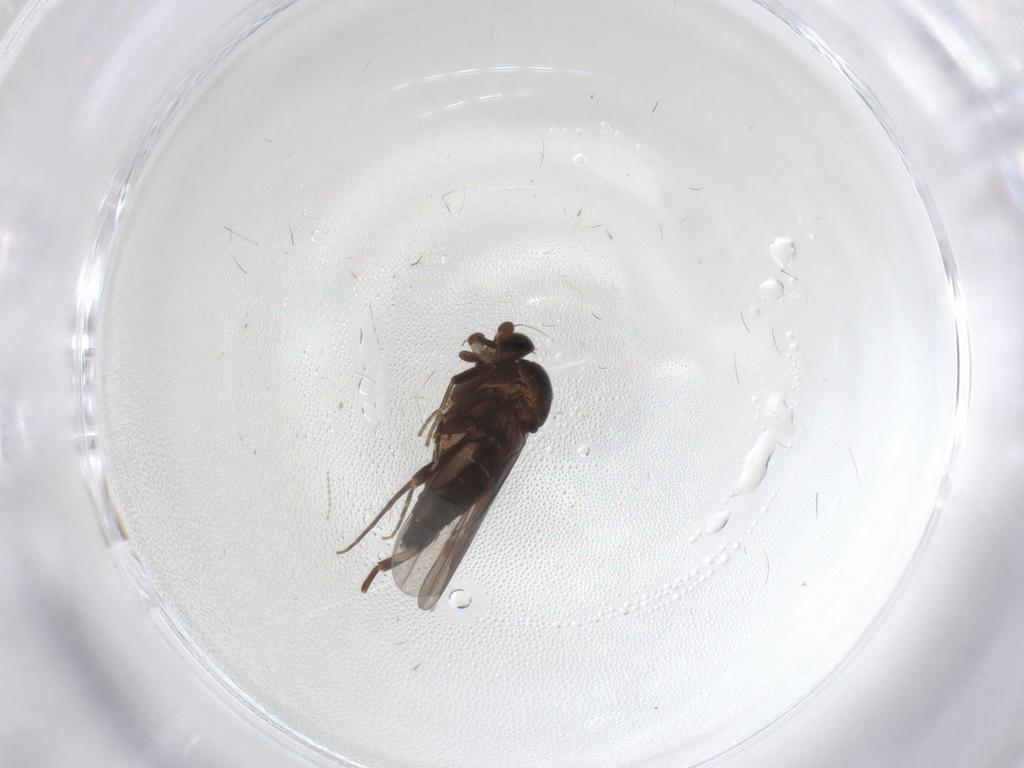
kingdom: Animalia
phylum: Arthropoda
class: Insecta
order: Diptera
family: Phoridae
